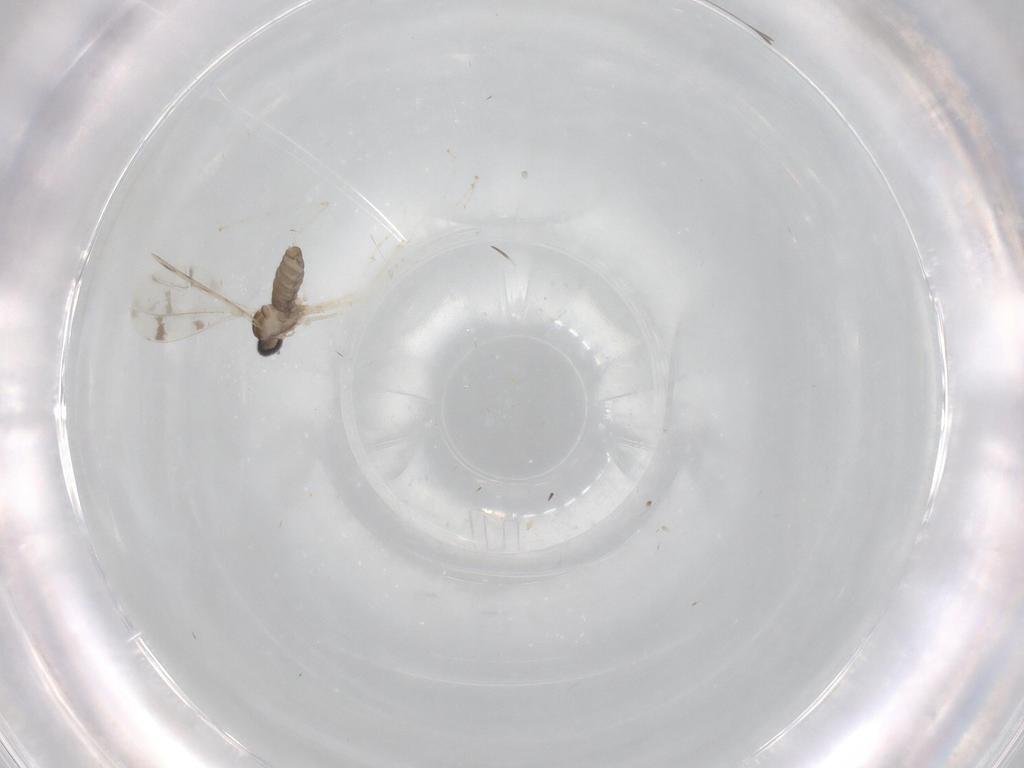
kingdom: Animalia
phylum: Arthropoda
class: Insecta
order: Diptera
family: Cecidomyiidae
